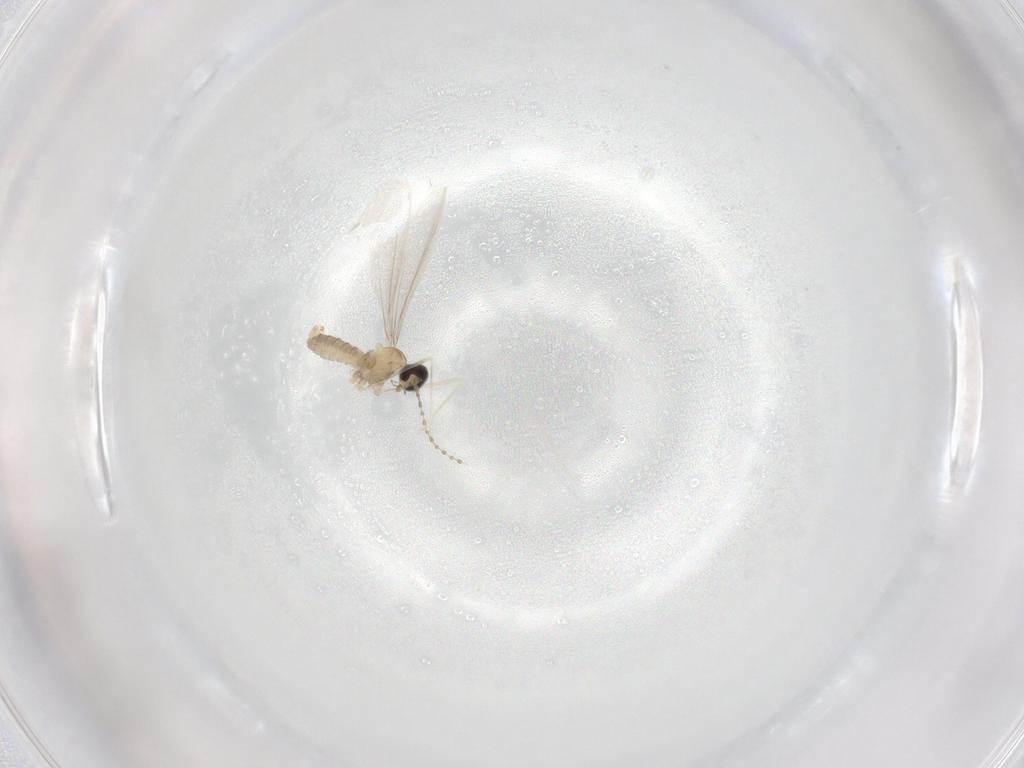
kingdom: Animalia
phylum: Arthropoda
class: Insecta
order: Diptera
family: Cecidomyiidae
